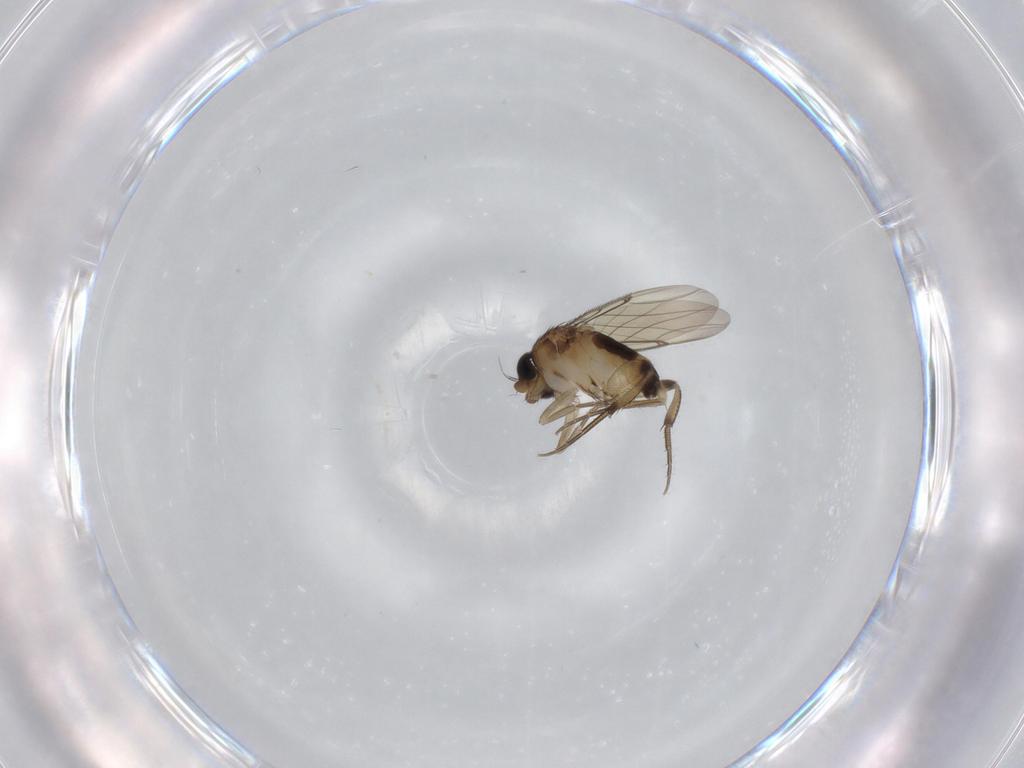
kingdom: Animalia
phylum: Arthropoda
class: Insecta
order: Diptera
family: Phoridae
